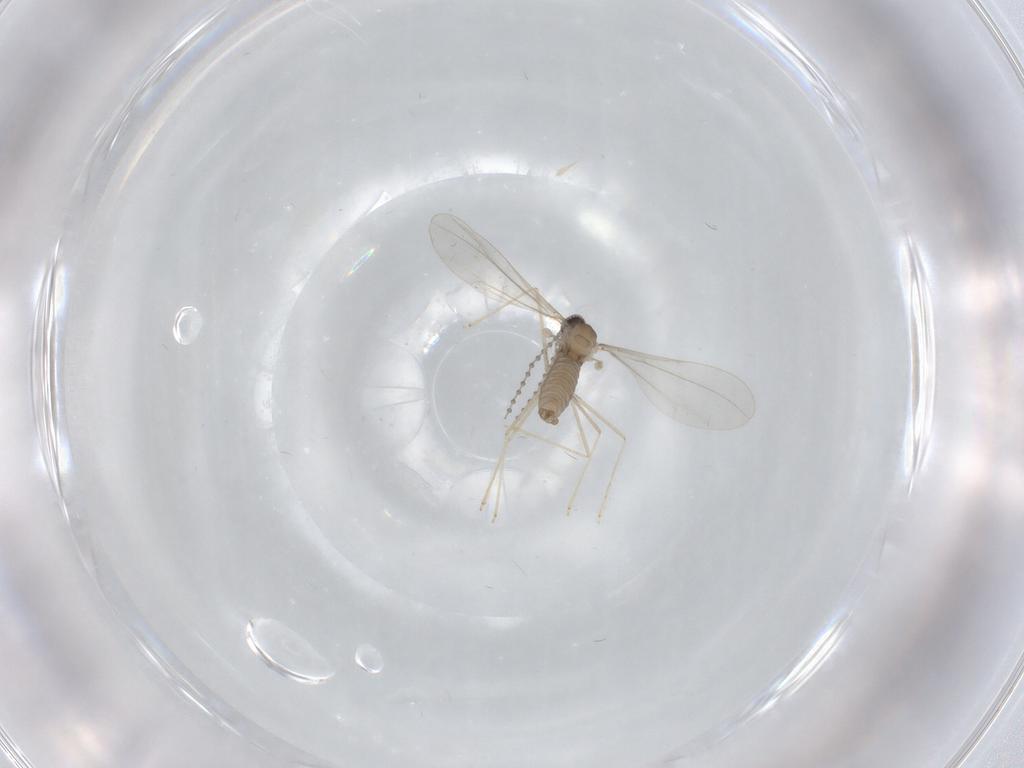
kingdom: Animalia
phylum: Arthropoda
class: Insecta
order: Diptera
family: Cecidomyiidae
